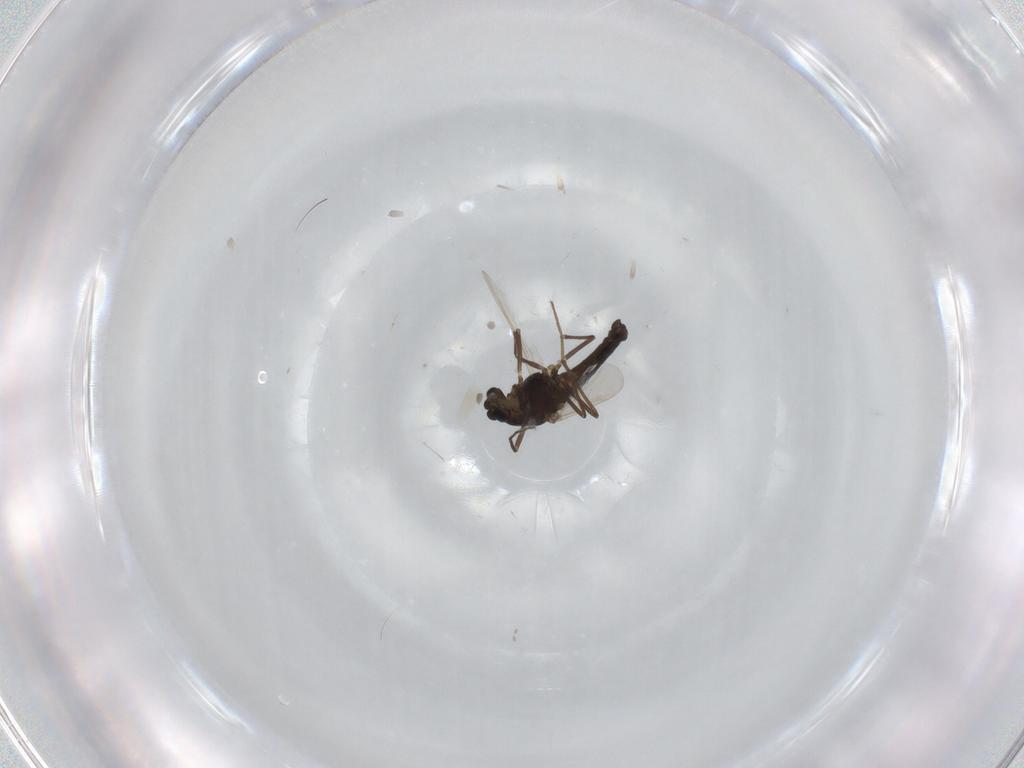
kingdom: Animalia
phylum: Arthropoda
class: Insecta
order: Diptera
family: Chironomidae
